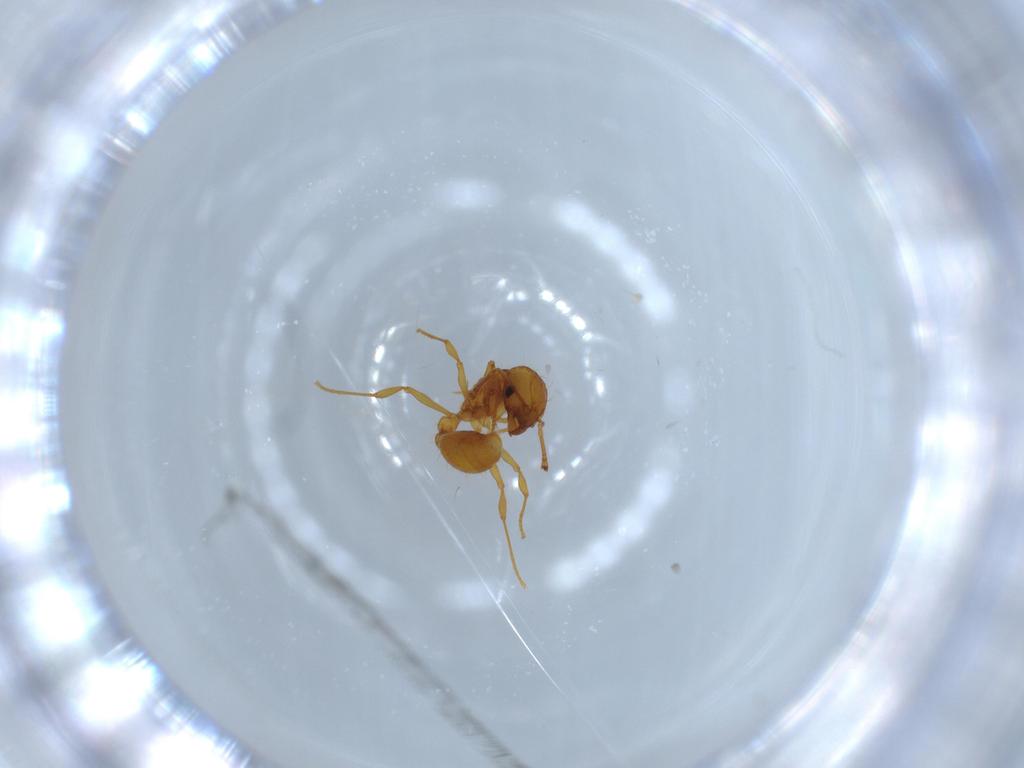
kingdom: Animalia
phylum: Arthropoda
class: Insecta
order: Hymenoptera
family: Formicidae
